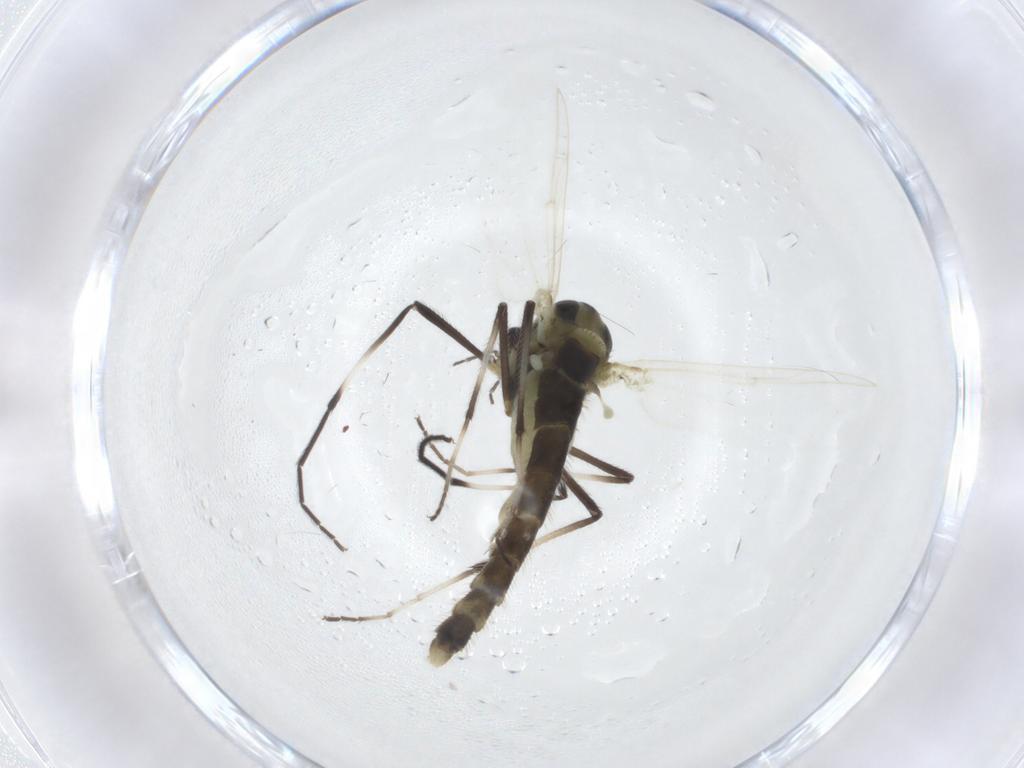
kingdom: Animalia
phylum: Arthropoda
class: Insecta
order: Diptera
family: Chironomidae
